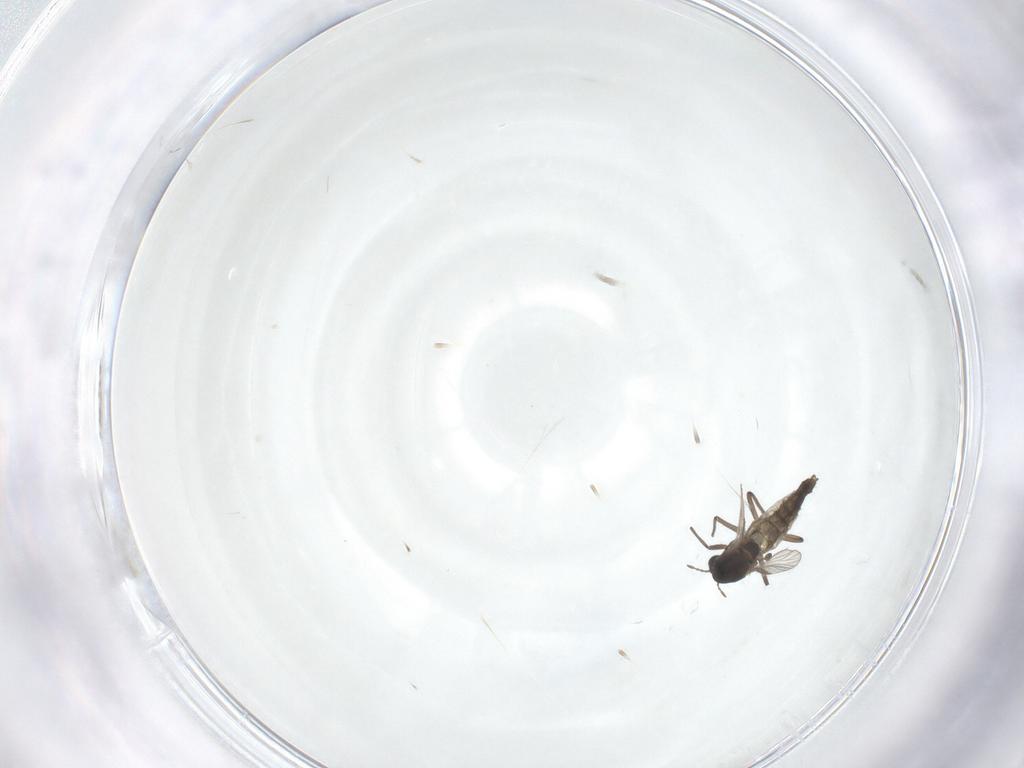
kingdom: Animalia
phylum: Arthropoda
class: Insecta
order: Diptera
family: Chironomidae
